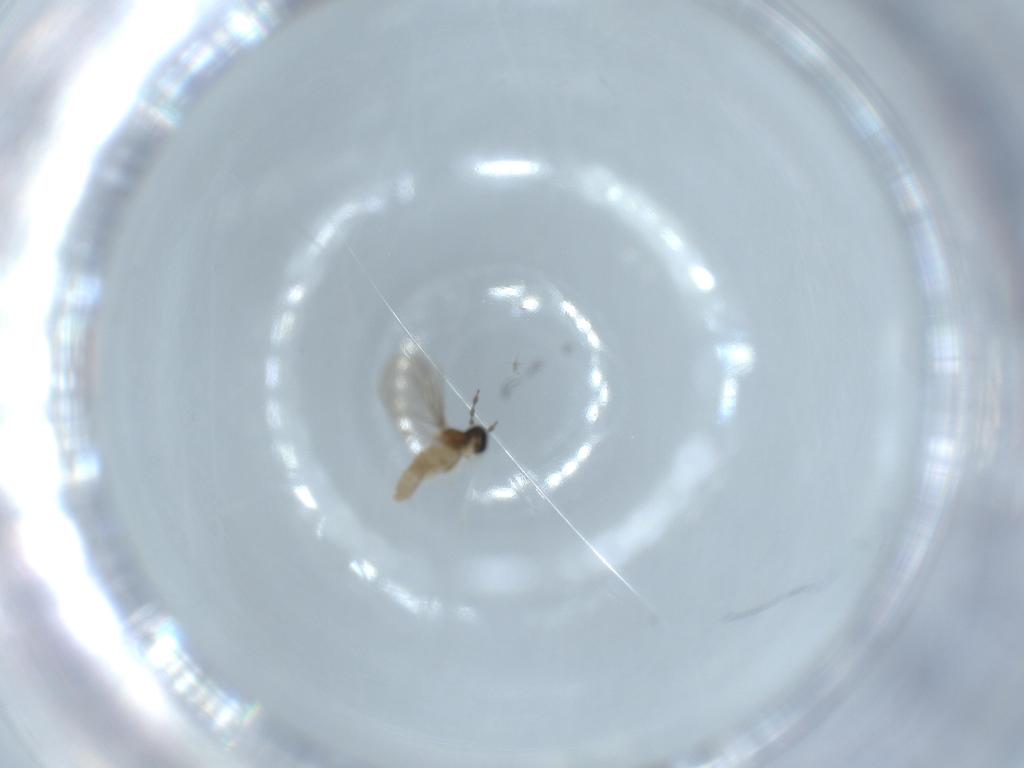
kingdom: Animalia
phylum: Arthropoda
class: Insecta
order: Diptera
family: Cecidomyiidae
